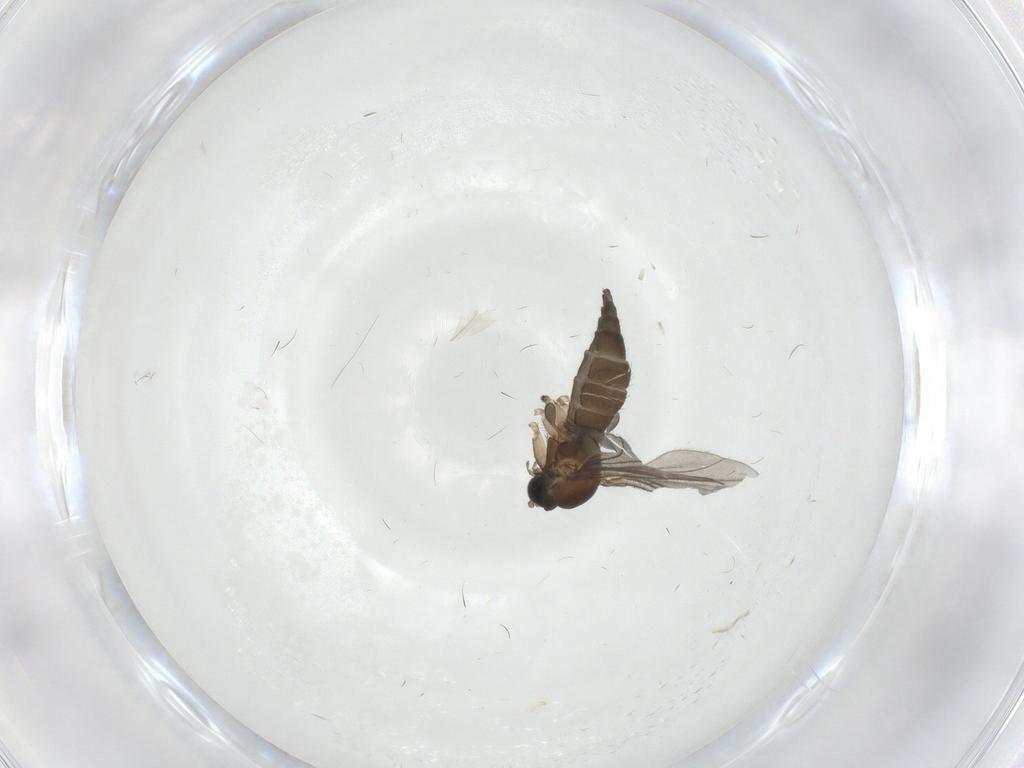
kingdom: Animalia
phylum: Arthropoda
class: Insecta
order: Diptera
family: Sciaridae
